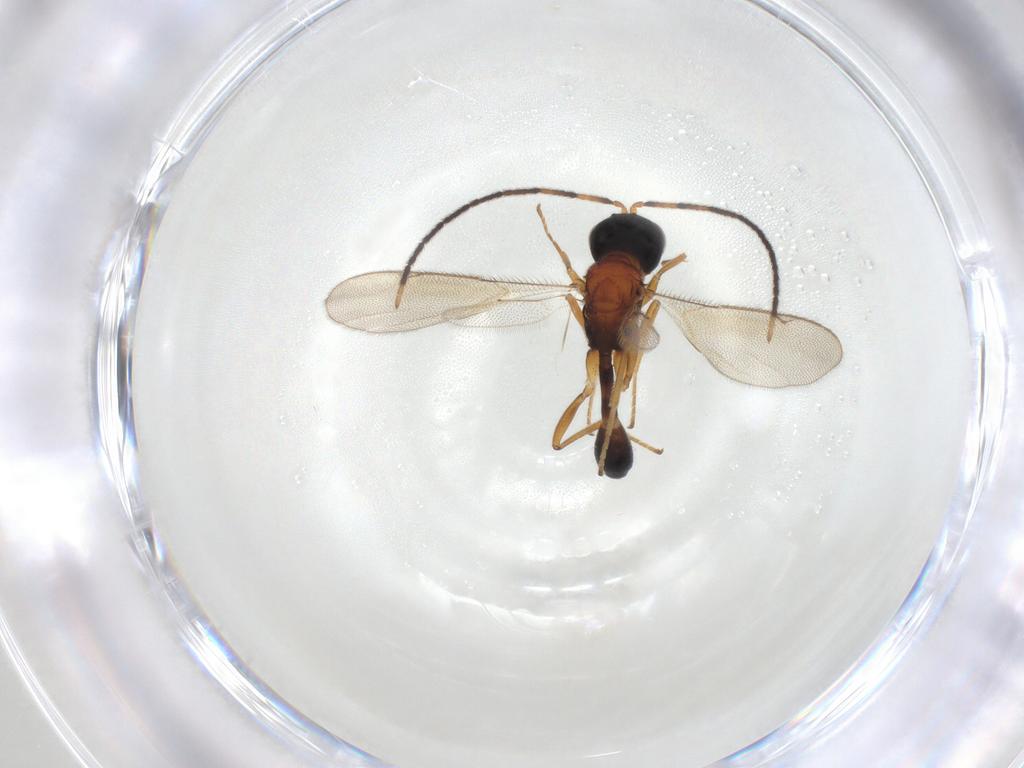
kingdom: Animalia
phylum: Arthropoda
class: Insecta
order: Hymenoptera
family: Pteromalidae
